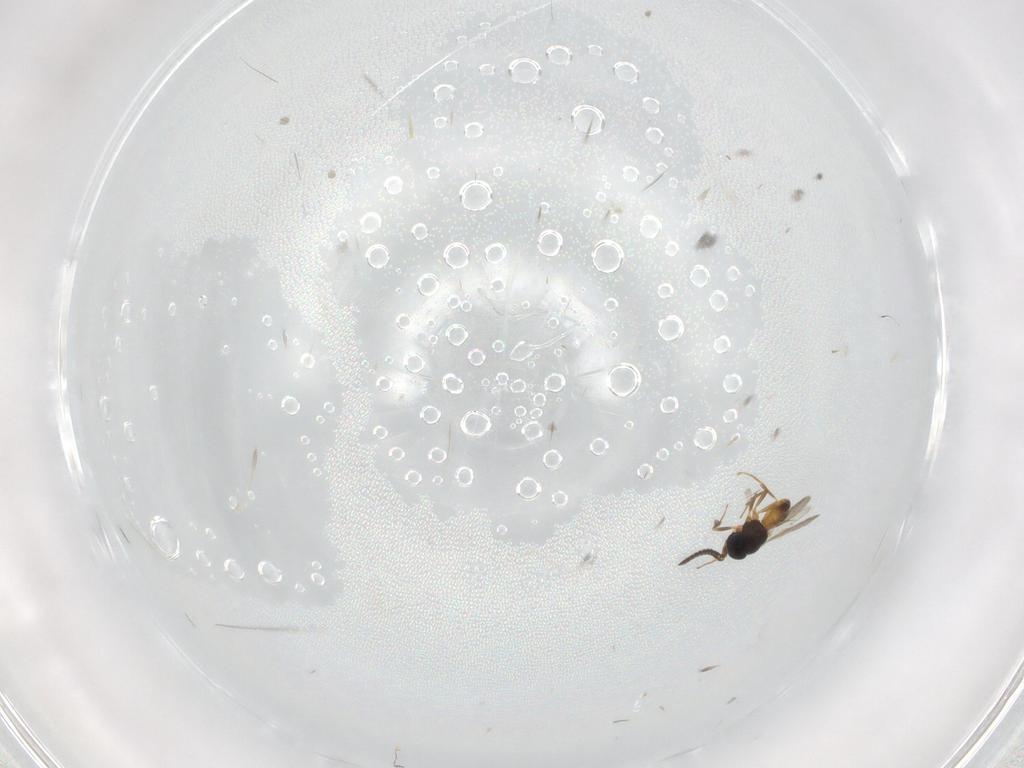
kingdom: Animalia
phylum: Arthropoda
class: Insecta
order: Hymenoptera
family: Scelionidae
